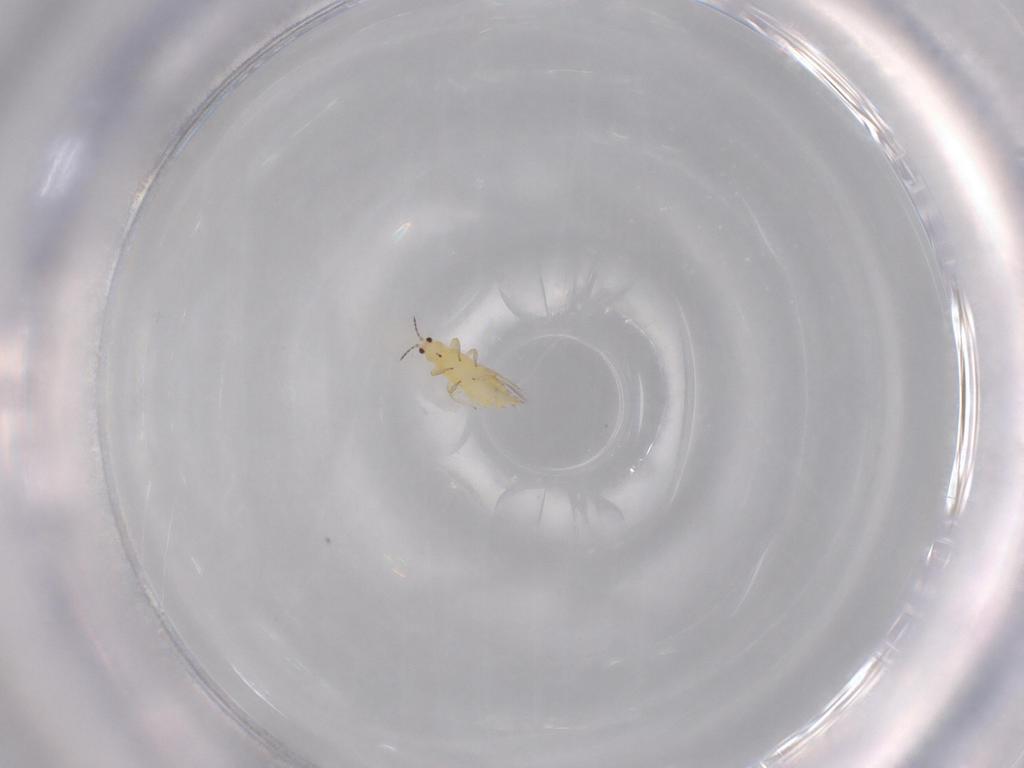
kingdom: Animalia
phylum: Arthropoda
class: Insecta
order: Thysanoptera
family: Thripidae
